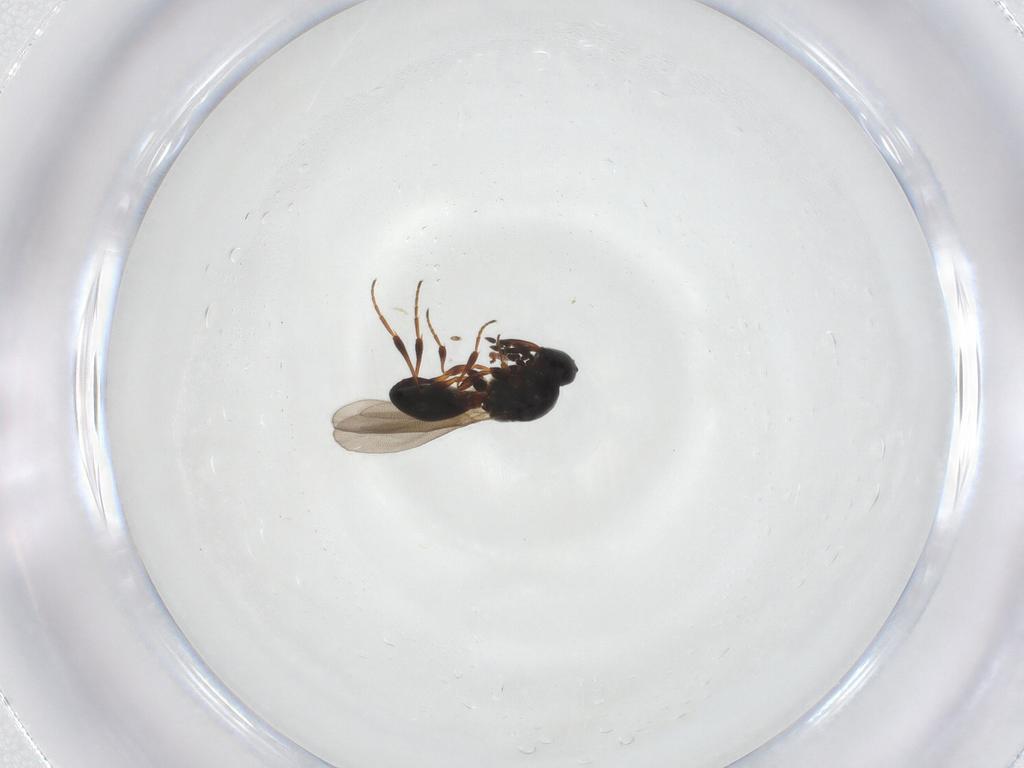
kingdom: Animalia
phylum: Arthropoda
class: Insecta
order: Hymenoptera
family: Platygastridae
